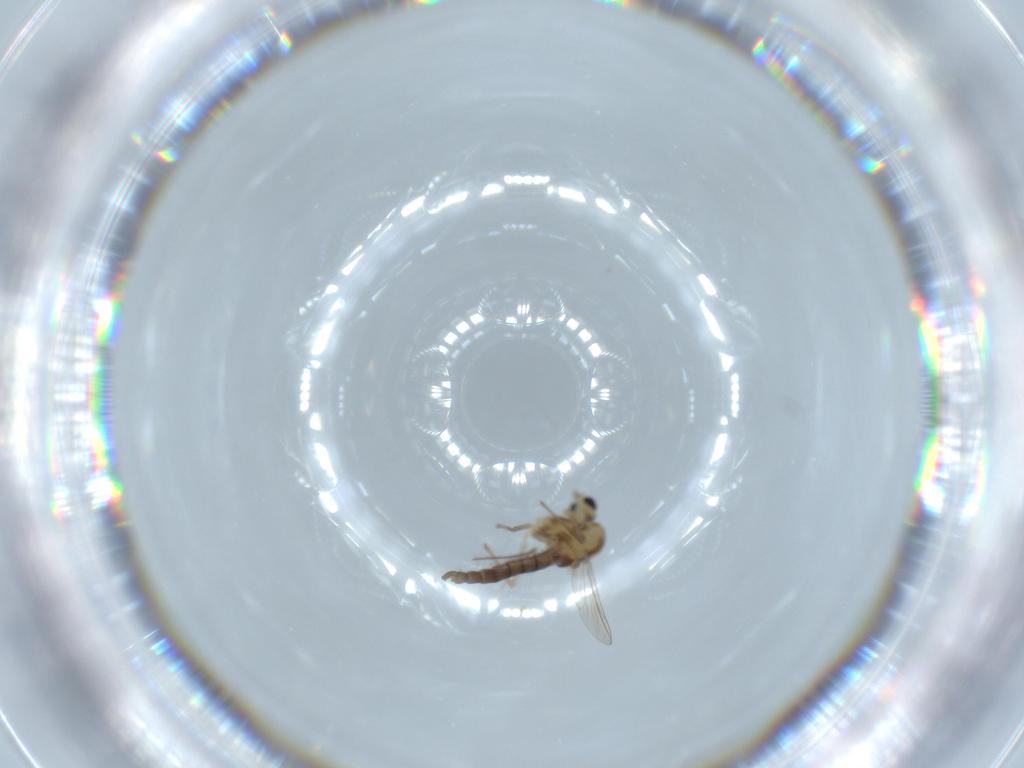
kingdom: Animalia
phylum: Arthropoda
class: Insecta
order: Diptera
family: Chironomidae
